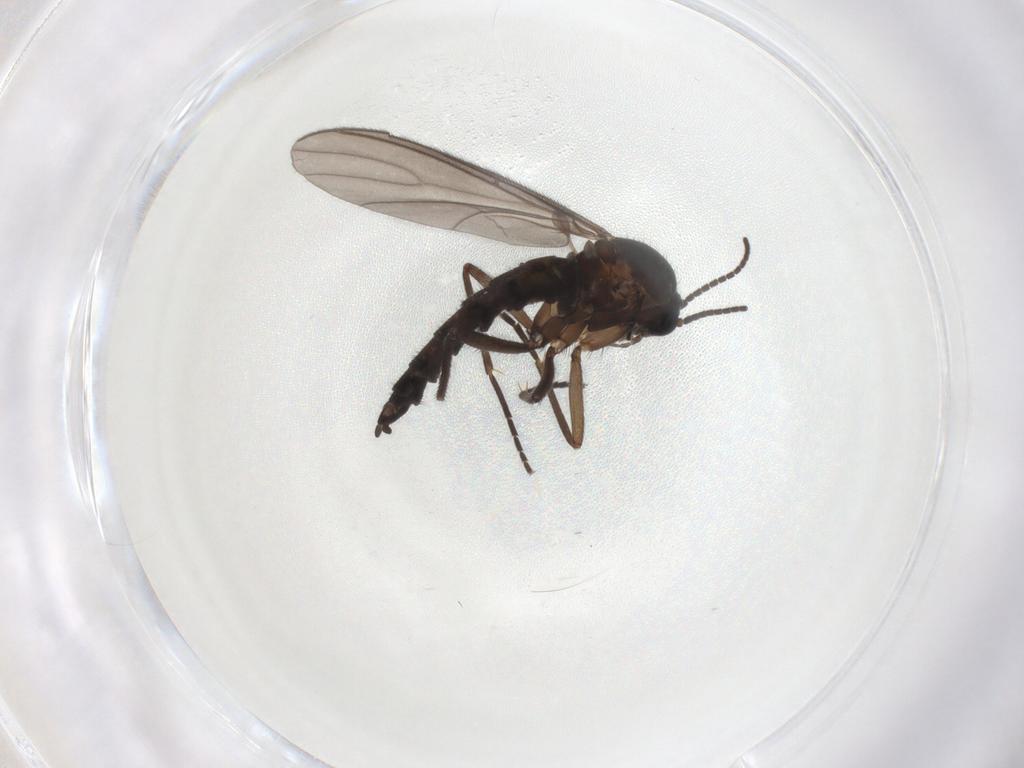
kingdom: Animalia
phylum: Arthropoda
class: Insecta
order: Diptera
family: Sciaridae
